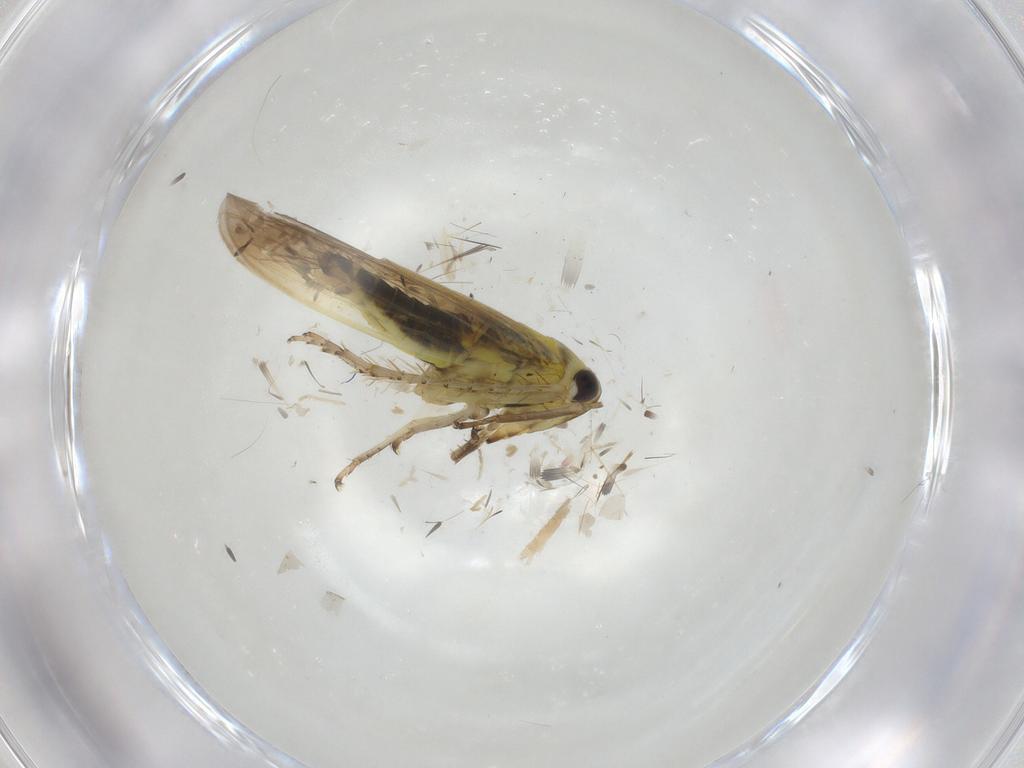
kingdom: Animalia
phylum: Arthropoda
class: Insecta
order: Hemiptera
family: Cicadellidae
